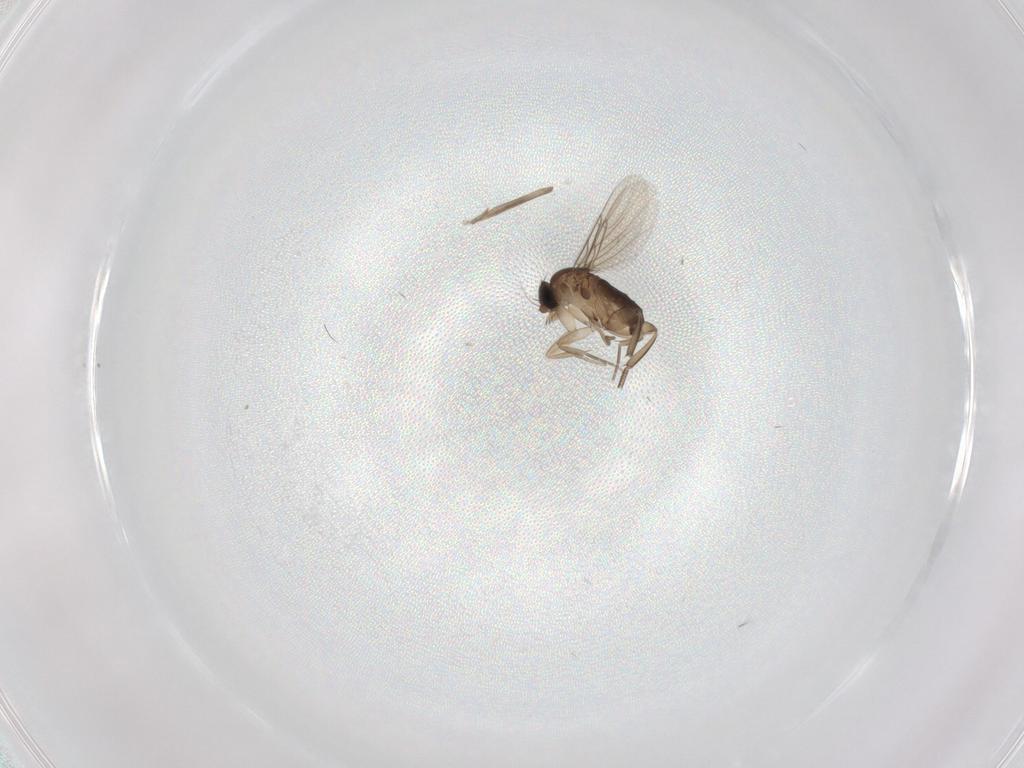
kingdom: Animalia
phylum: Arthropoda
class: Insecta
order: Diptera
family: Phoridae
